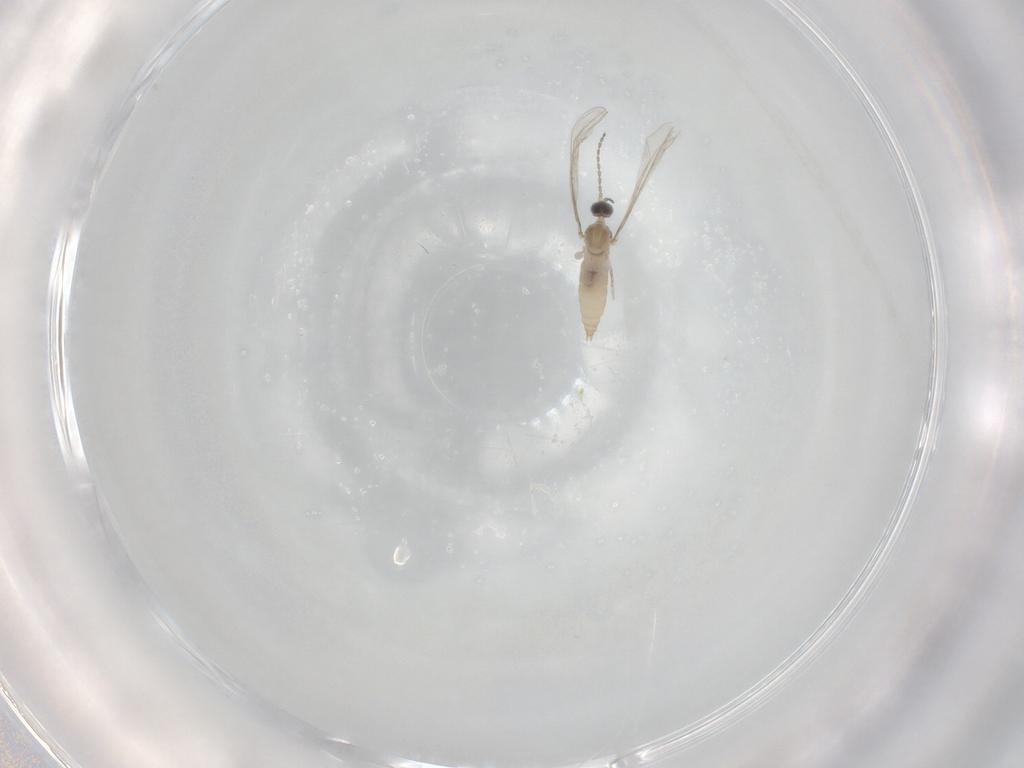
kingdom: Animalia
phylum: Arthropoda
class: Insecta
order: Diptera
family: Cecidomyiidae
